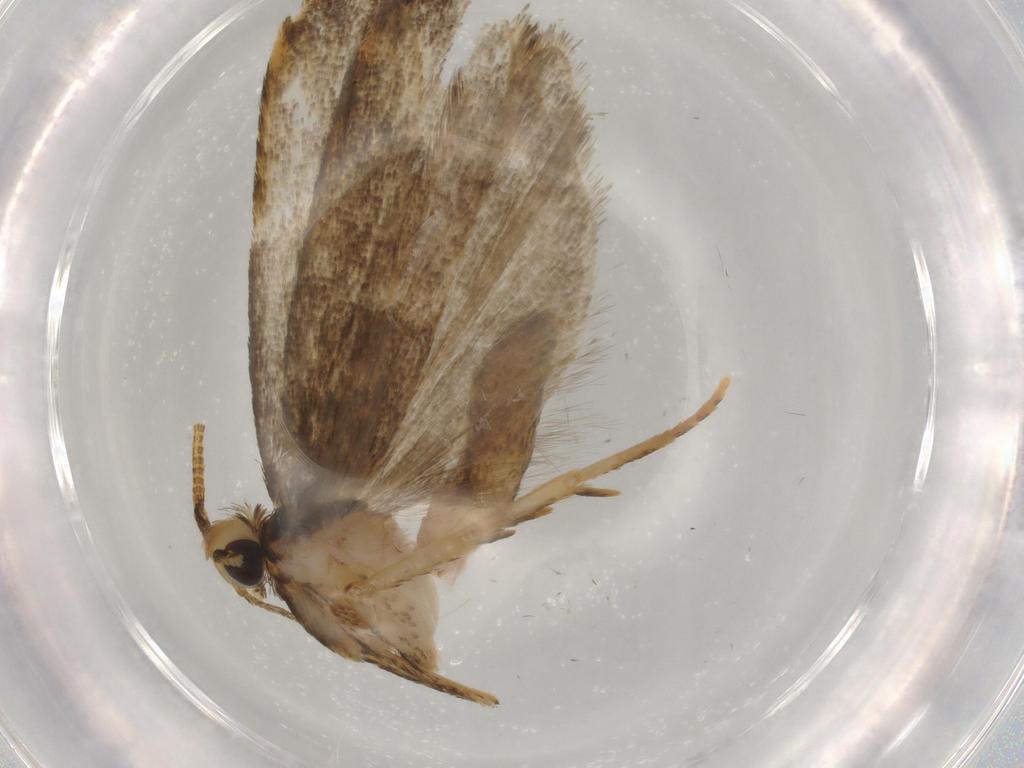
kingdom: Animalia
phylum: Arthropoda
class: Insecta
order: Lepidoptera
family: Autostichidae
